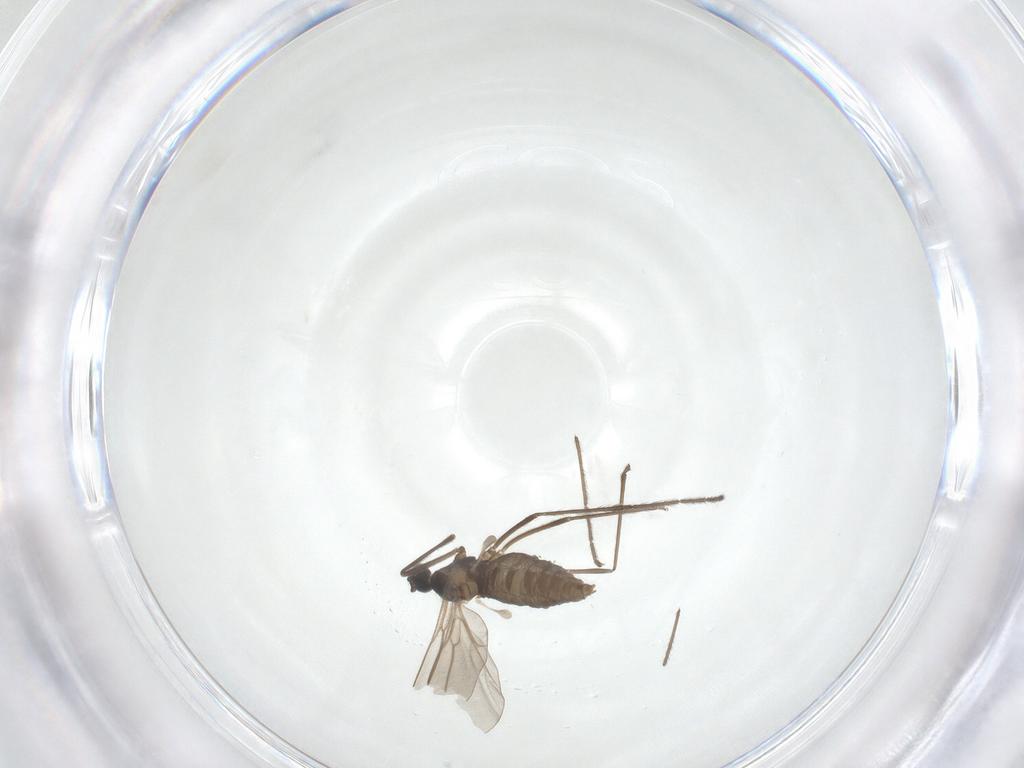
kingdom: Animalia
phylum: Arthropoda
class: Insecta
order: Diptera
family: Cecidomyiidae
